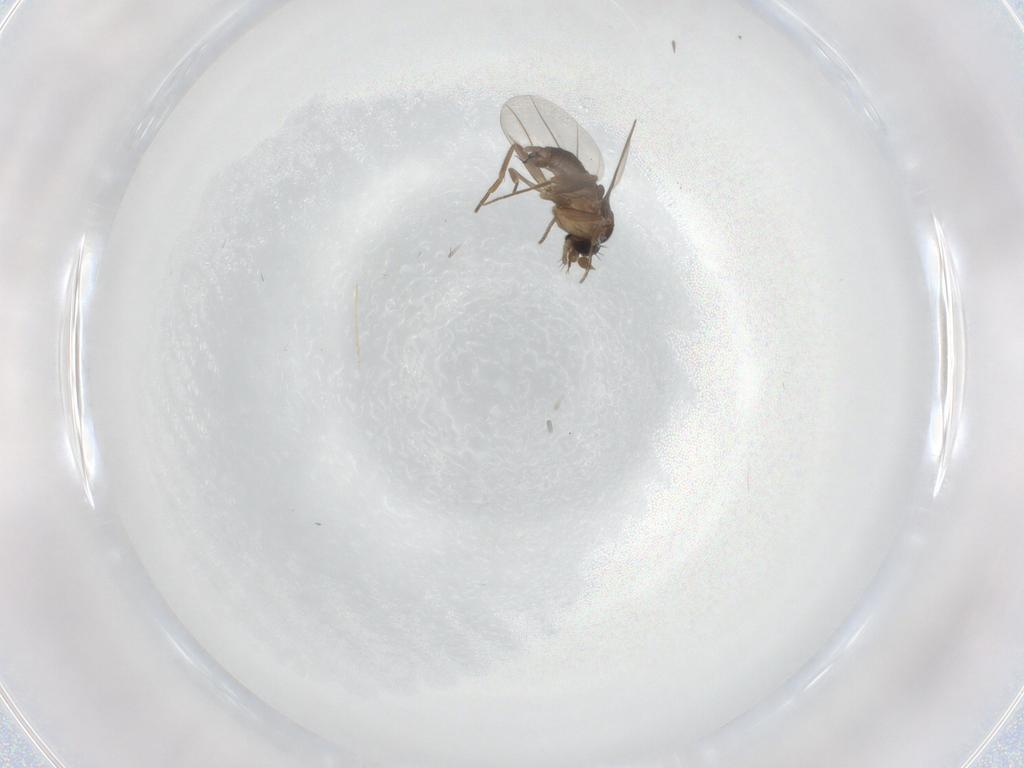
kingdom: Animalia
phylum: Arthropoda
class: Insecta
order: Diptera
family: Phoridae
